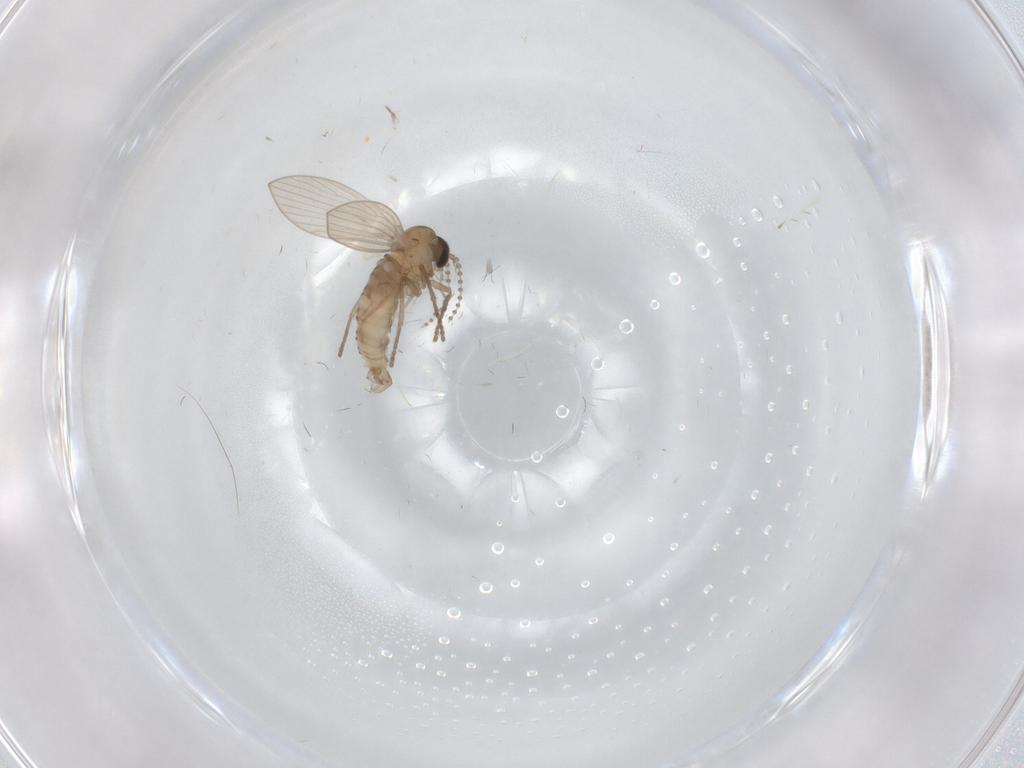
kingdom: Animalia
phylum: Arthropoda
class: Insecta
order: Diptera
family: Psychodidae
